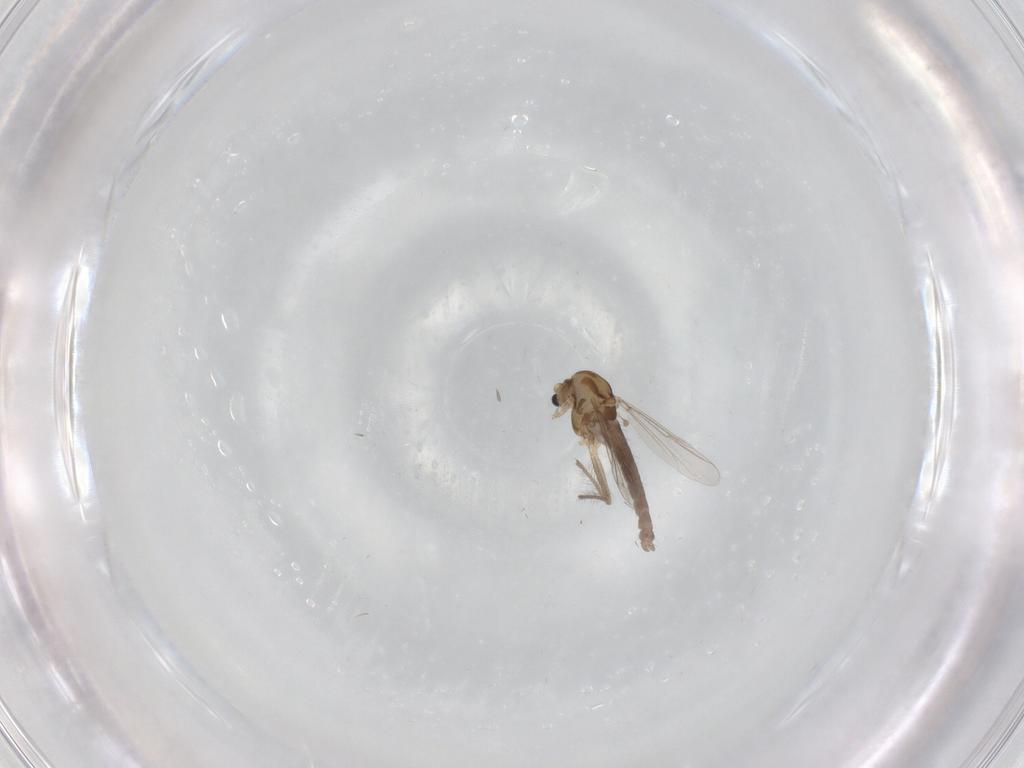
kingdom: Animalia
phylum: Arthropoda
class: Insecta
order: Diptera
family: Chironomidae
